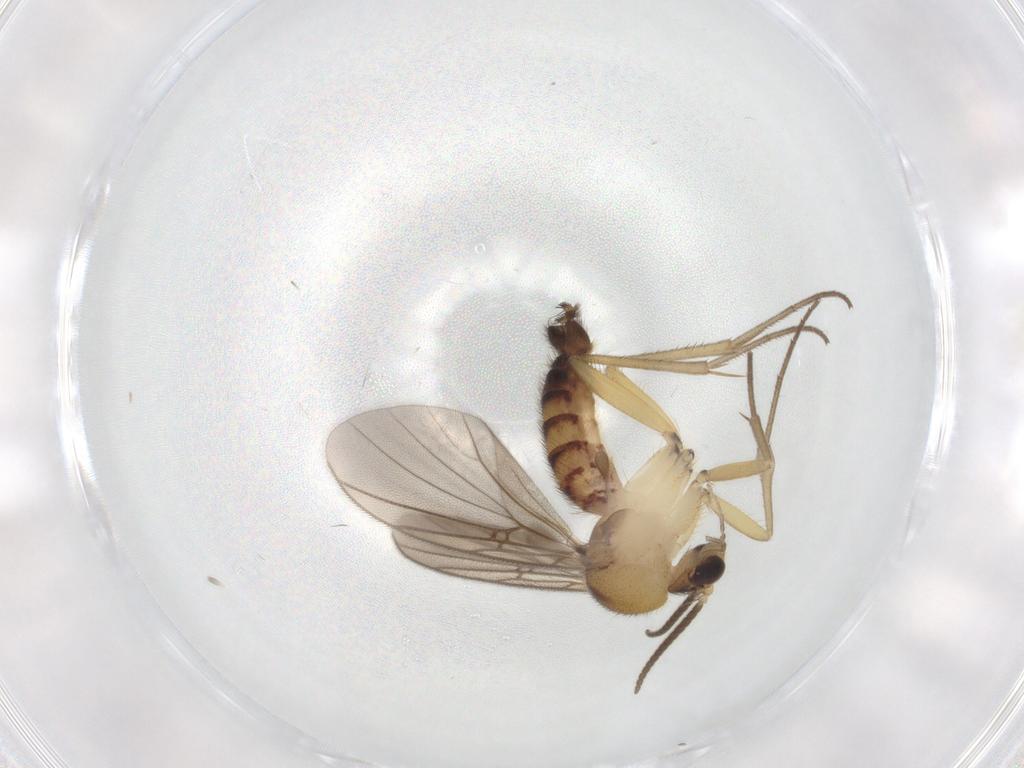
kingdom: Animalia
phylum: Arthropoda
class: Insecta
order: Diptera
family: Mycetophilidae
